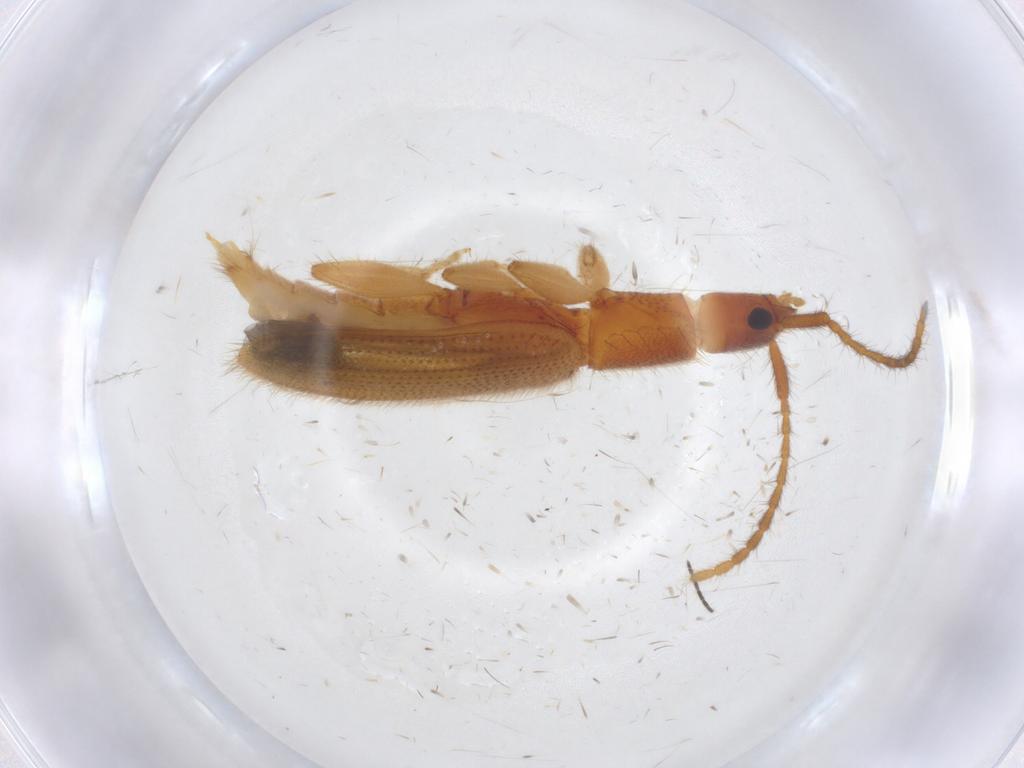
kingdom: Animalia
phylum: Arthropoda
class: Insecta
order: Coleoptera
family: Silvanidae
